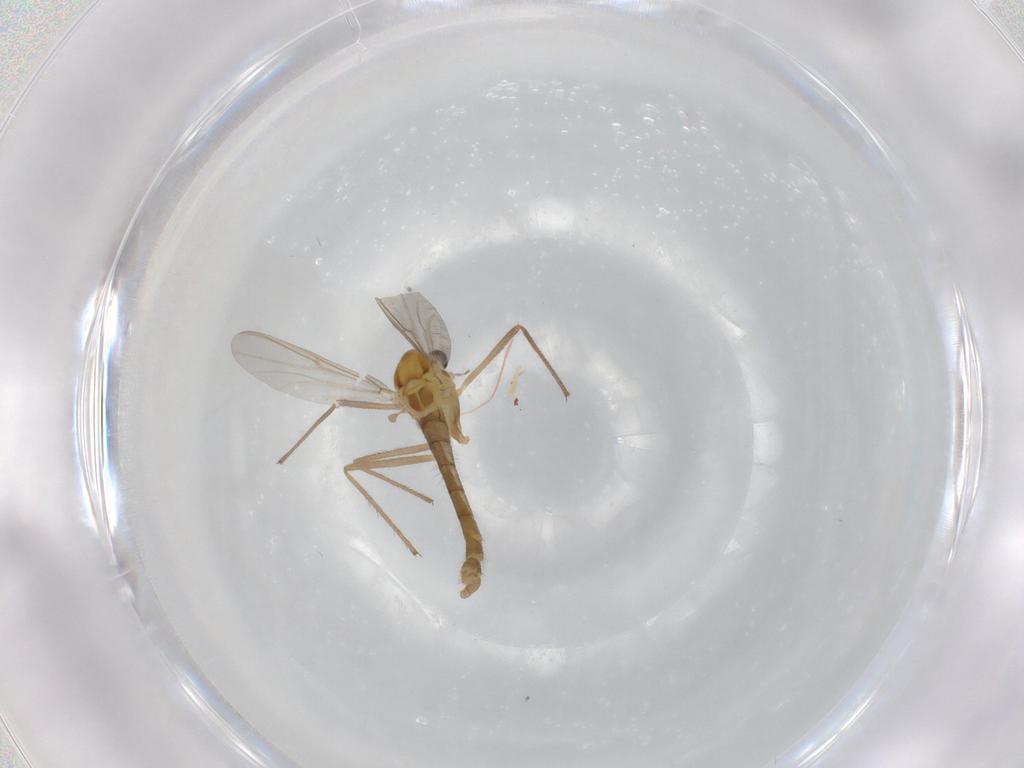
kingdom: Animalia
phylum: Arthropoda
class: Insecta
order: Diptera
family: Chironomidae
